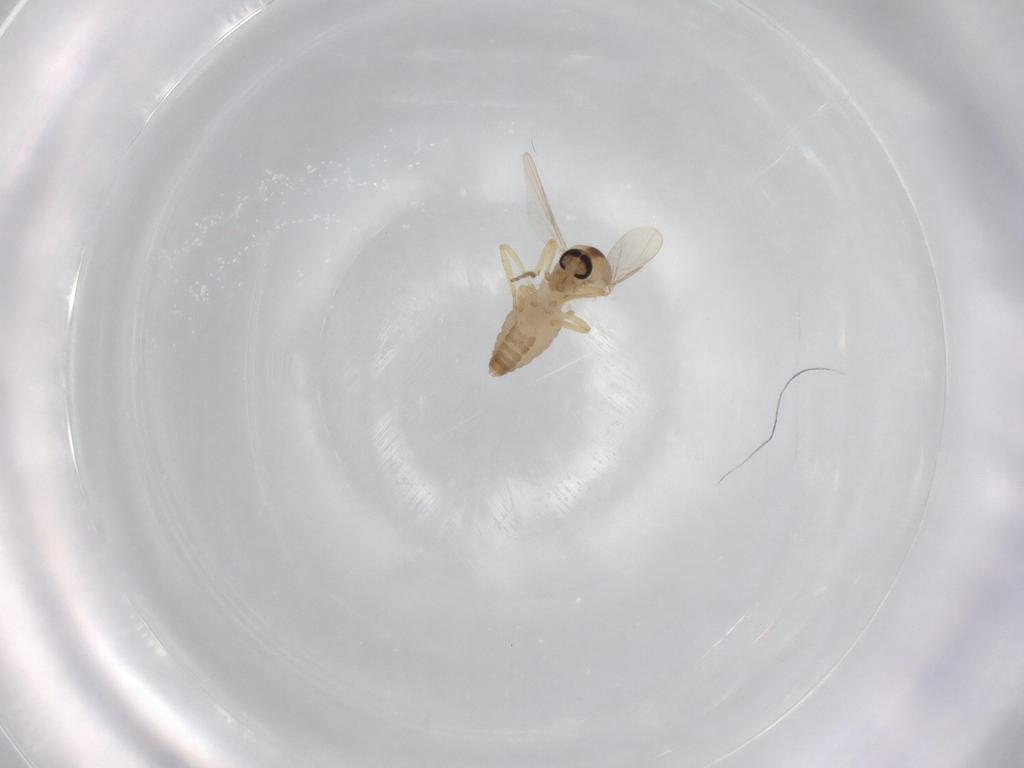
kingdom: Animalia
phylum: Arthropoda
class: Insecta
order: Diptera
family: Ceratopogonidae
